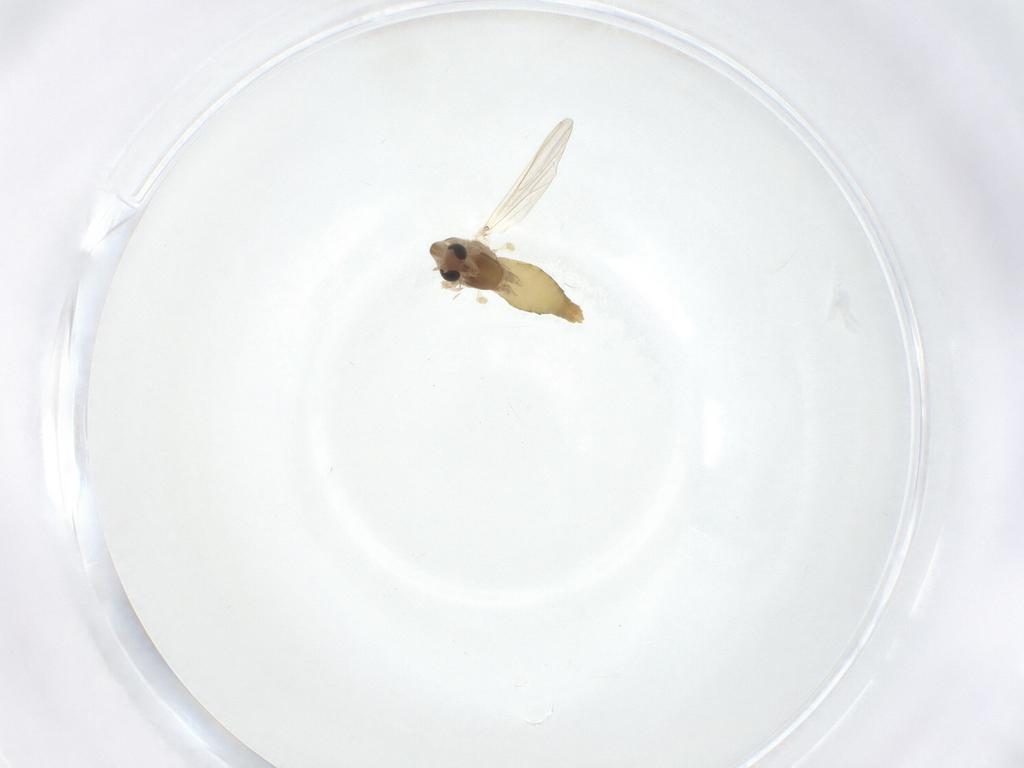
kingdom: Animalia
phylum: Arthropoda
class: Insecta
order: Diptera
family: Chironomidae
